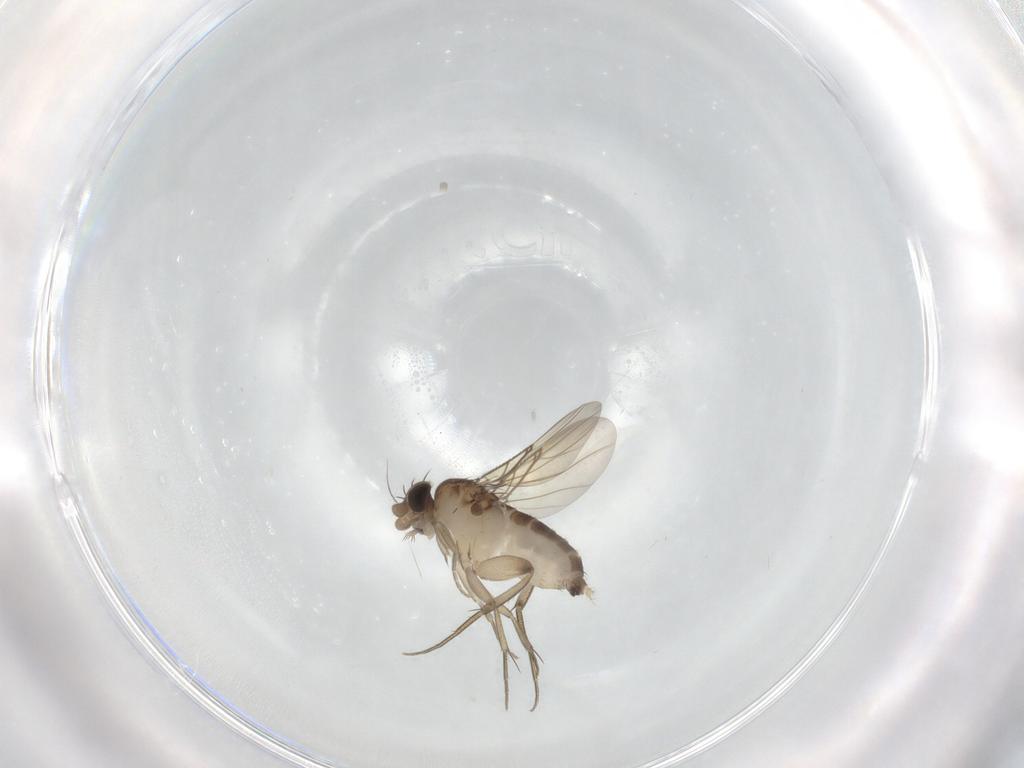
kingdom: Animalia
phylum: Arthropoda
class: Insecta
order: Diptera
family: Phoridae
